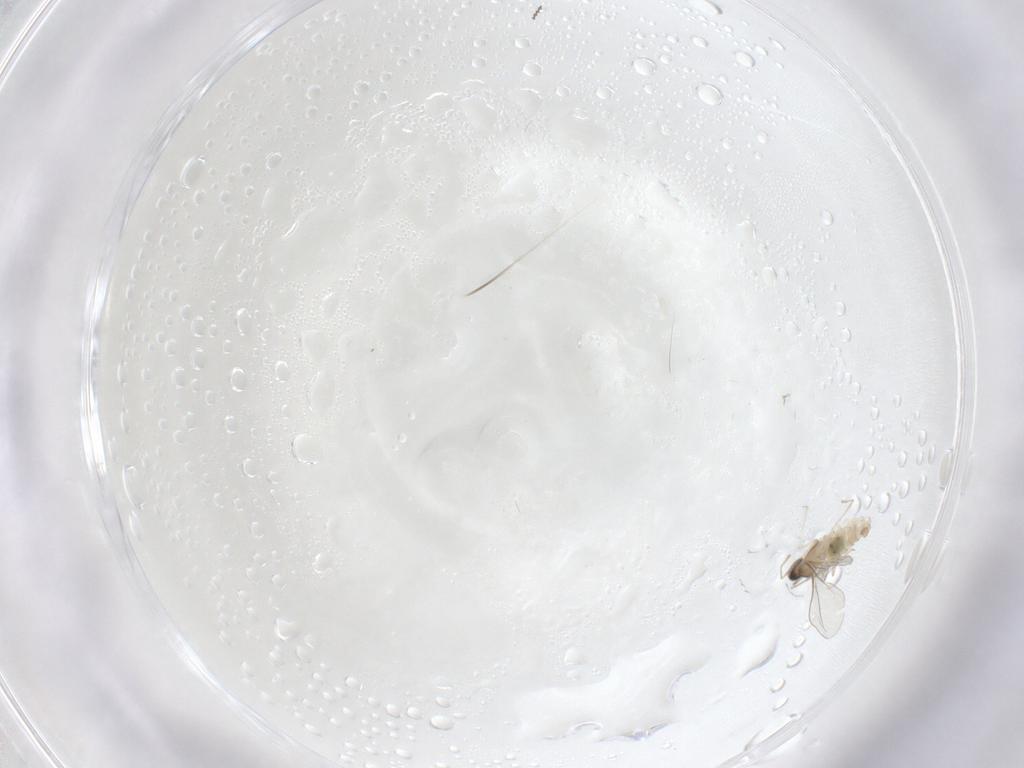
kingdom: Animalia
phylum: Arthropoda
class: Insecta
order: Diptera
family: Cecidomyiidae
